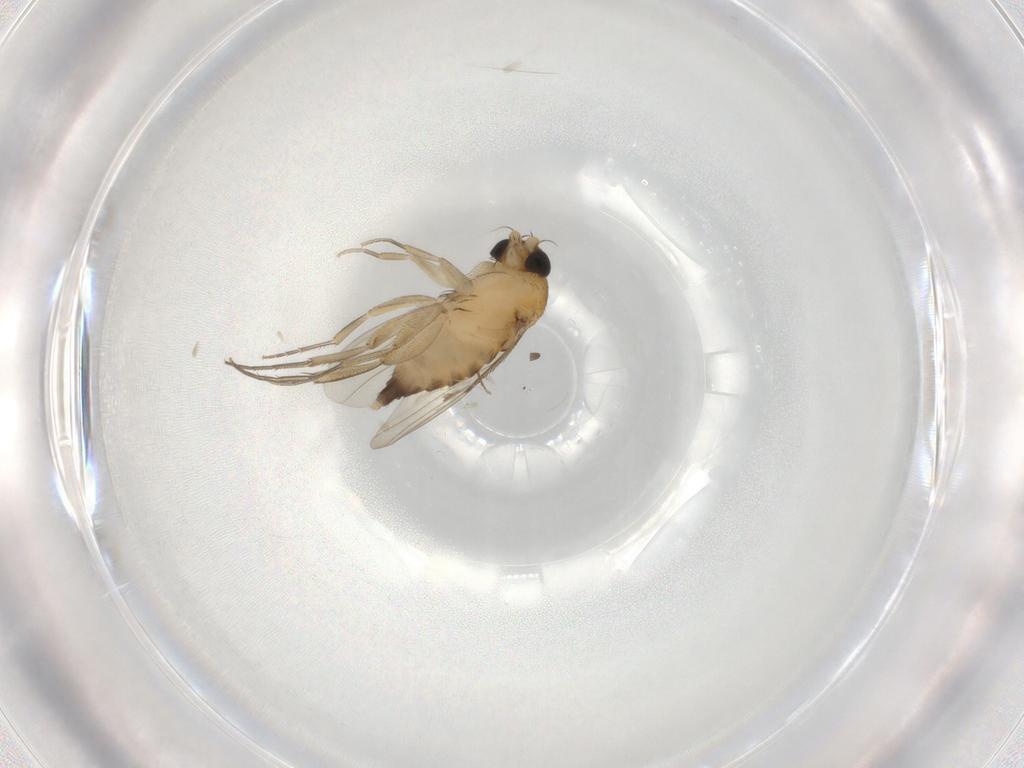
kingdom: Animalia
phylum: Arthropoda
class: Insecta
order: Diptera
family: Phoridae
